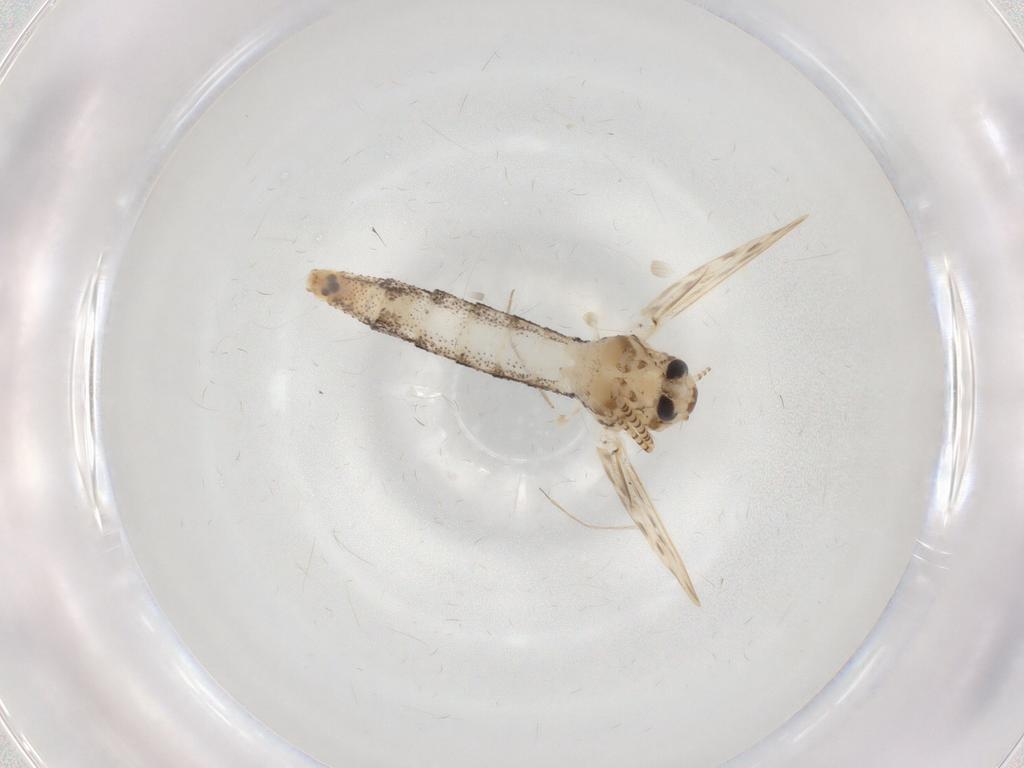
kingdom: Animalia
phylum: Arthropoda
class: Insecta
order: Diptera
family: Chaoboridae
